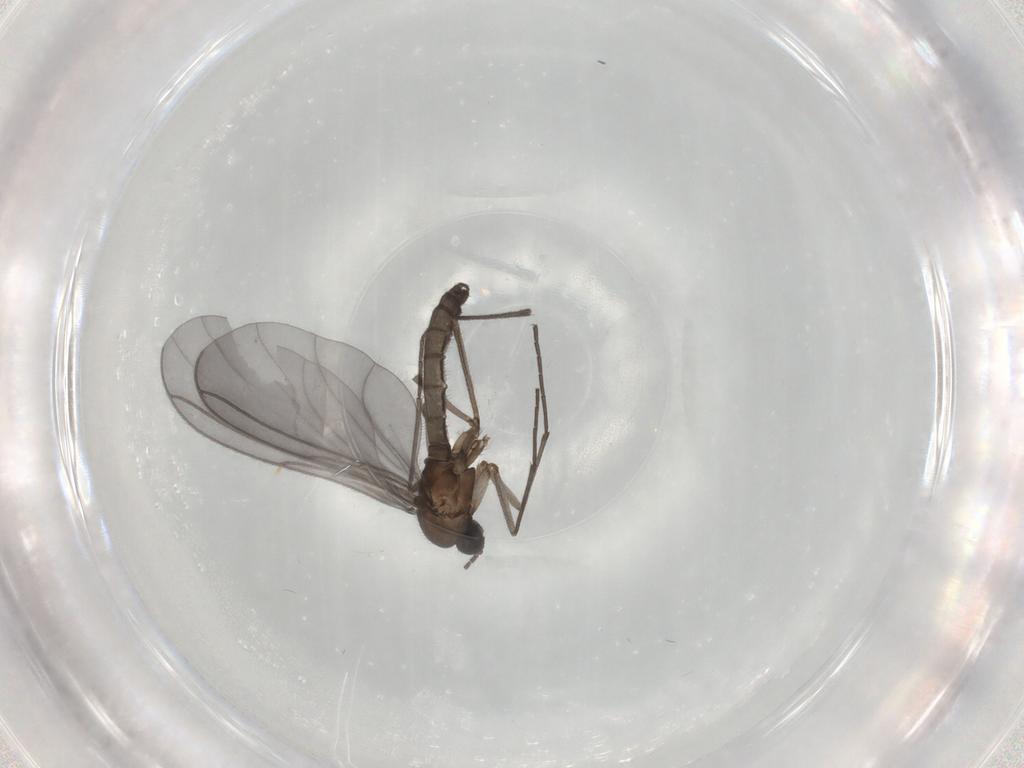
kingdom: Animalia
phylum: Arthropoda
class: Insecta
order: Diptera
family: Sciaridae
